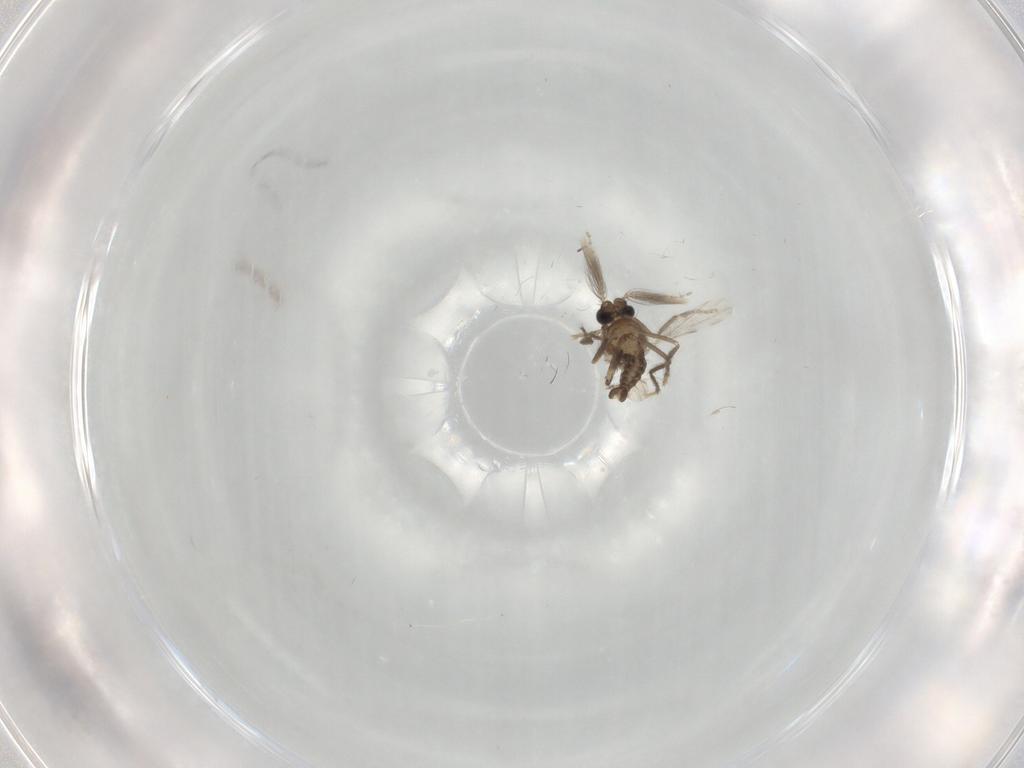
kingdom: Animalia
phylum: Arthropoda
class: Insecta
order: Diptera
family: Ceratopogonidae
